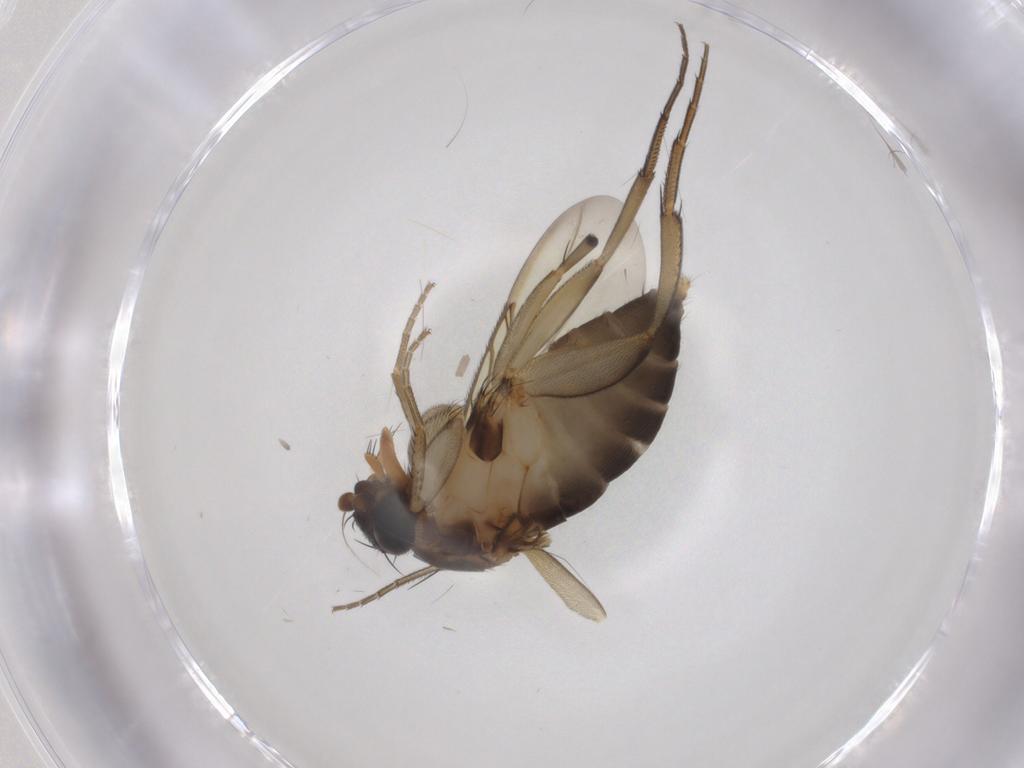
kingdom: Animalia
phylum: Arthropoda
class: Insecta
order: Diptera
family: Phoridae
